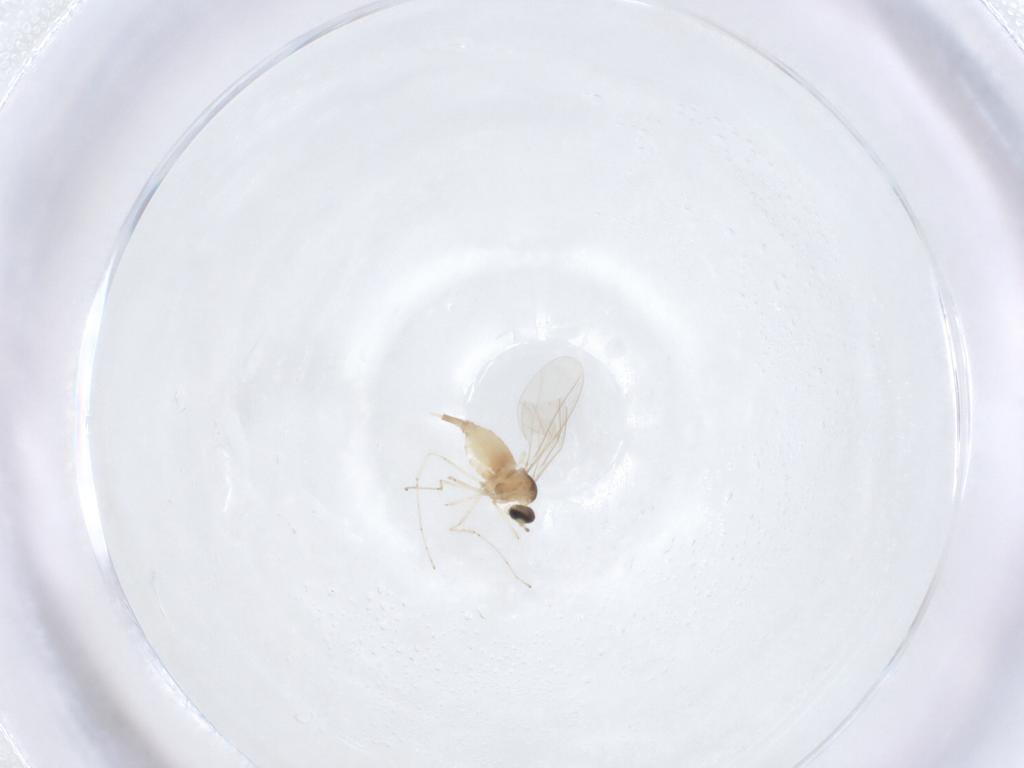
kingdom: Animalia
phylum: Arthropoda
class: Insecta
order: Diptera
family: Cecidomyiidae
